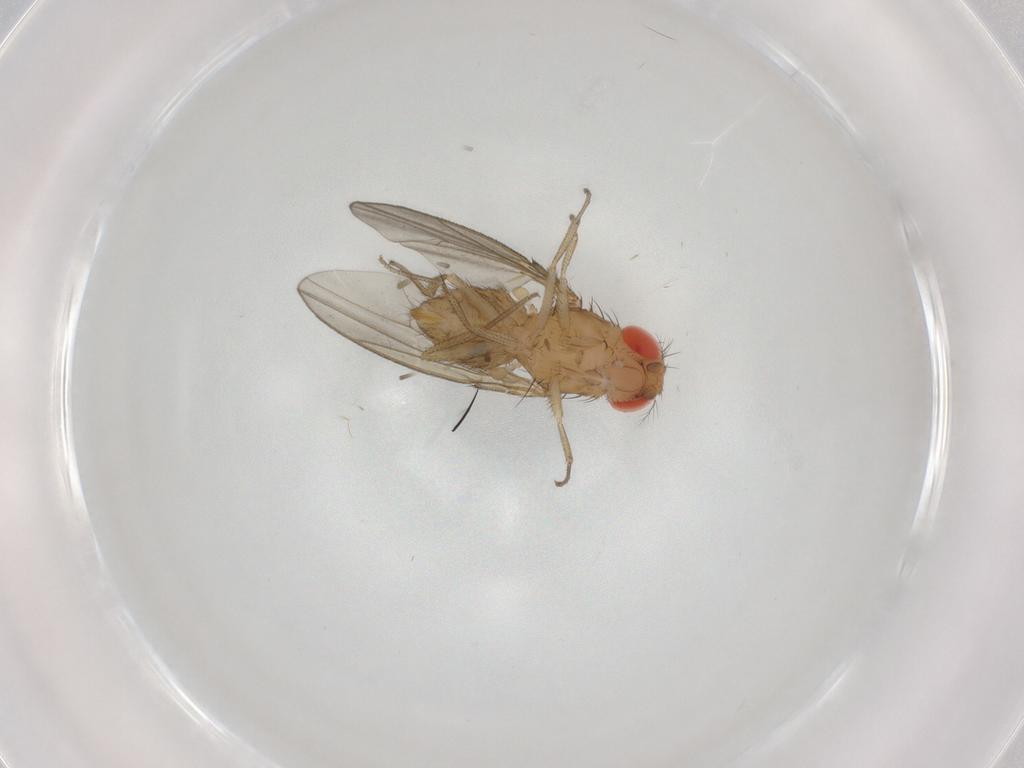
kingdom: Animalia
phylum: Arthropoda
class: Insecta
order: Diptera
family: Drosophilidae
